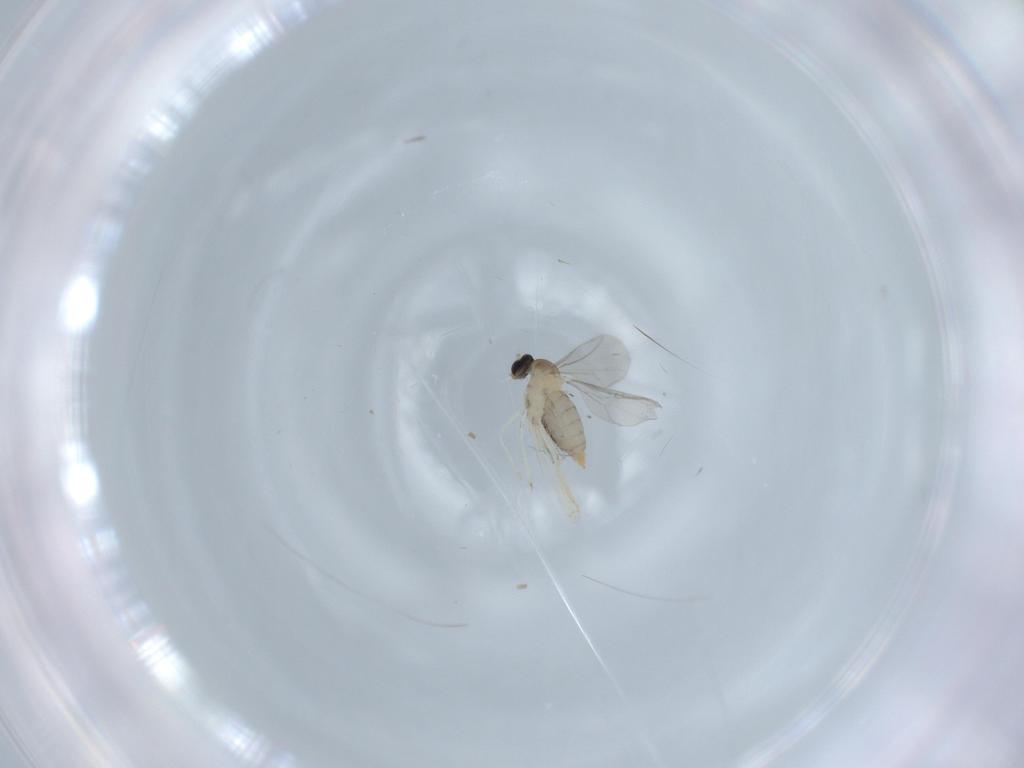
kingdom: Animalia
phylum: Arthropoda
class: Insecta
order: Diptera
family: Cecidomyiidae
